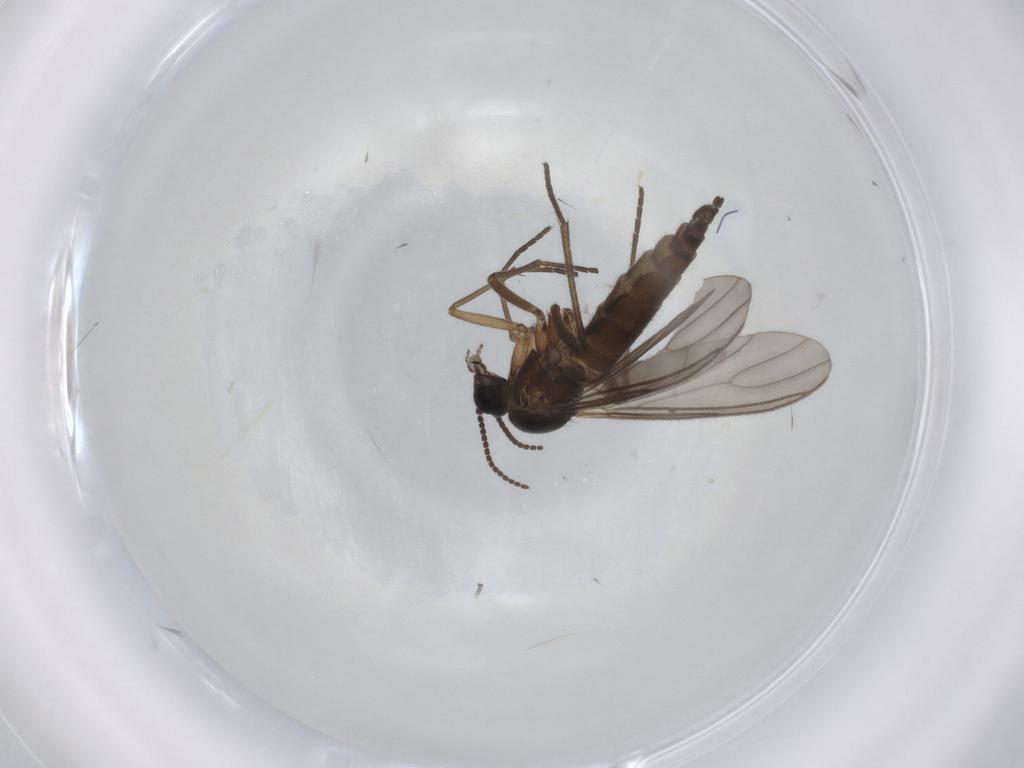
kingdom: Animalia
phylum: Arthropoda
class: Insecta
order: Diptera
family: Sciaridae
